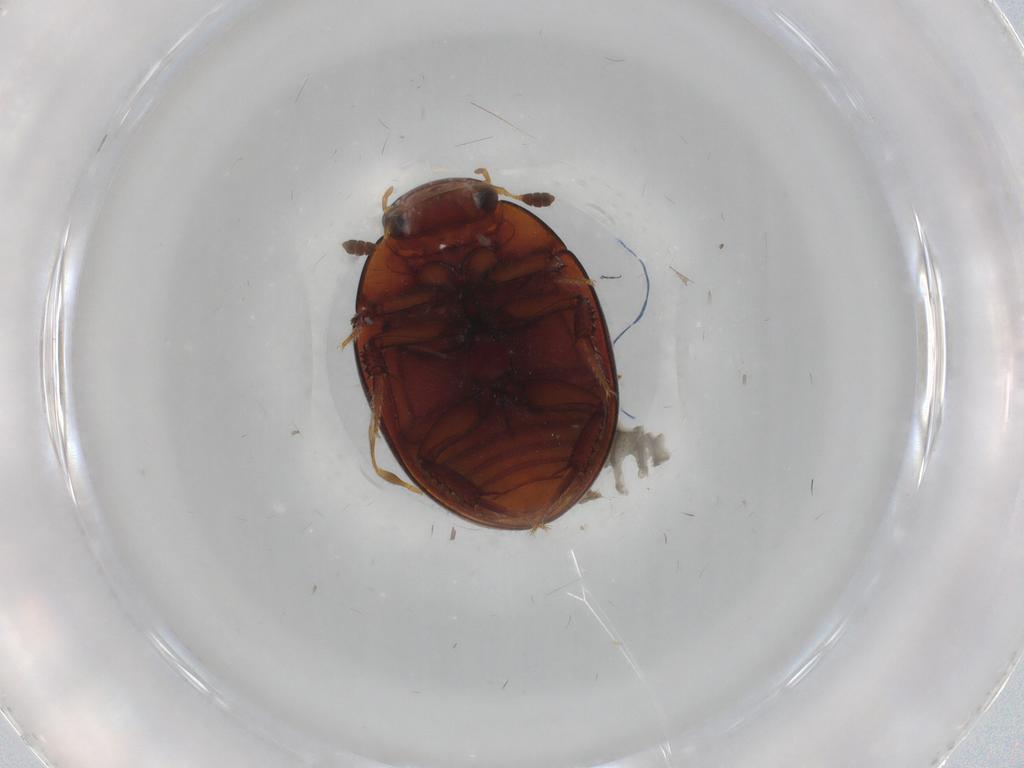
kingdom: Animalia
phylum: Arthropoda
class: Insecta
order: Coleoptera
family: Hydrophilidae
